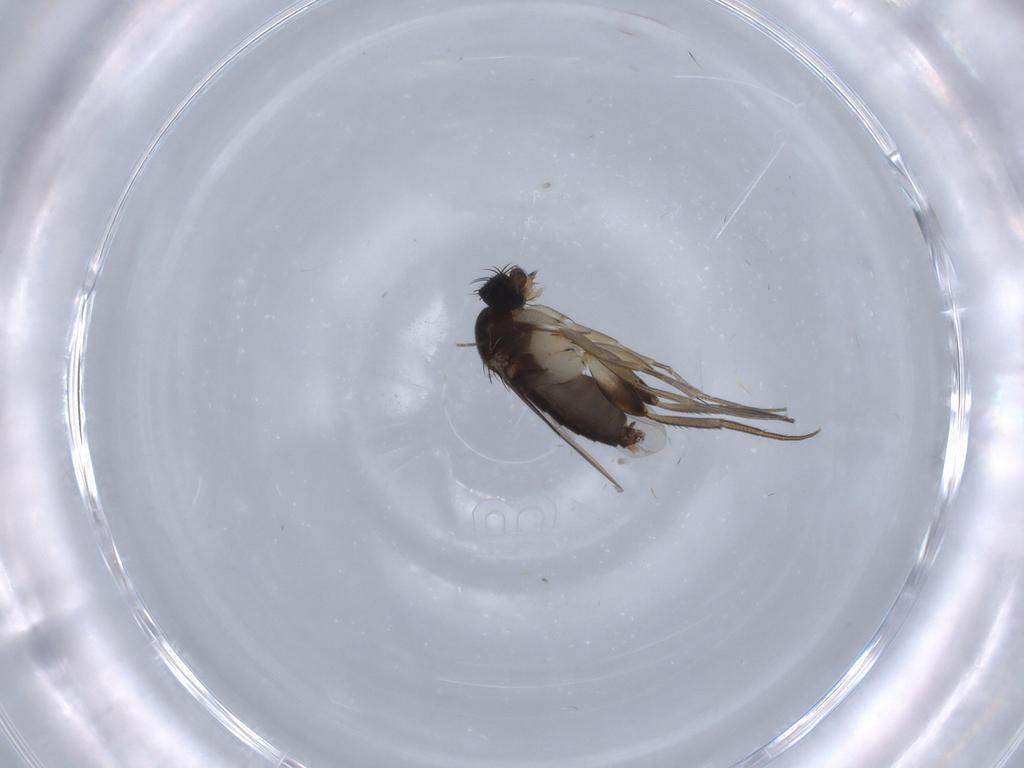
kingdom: Animalia
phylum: Arthropoda
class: Insecta
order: Diptera
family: Phoridae
